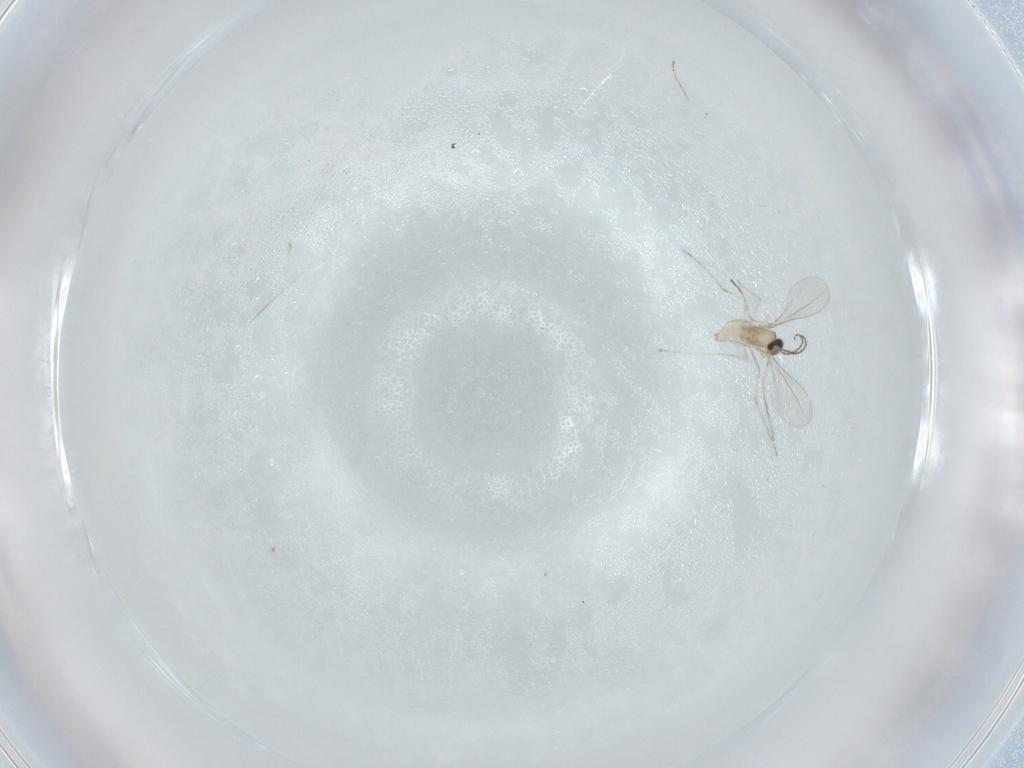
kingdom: Animalia
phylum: Arthropoda
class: Insecta
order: Diptera
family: Cecidomyiidae
